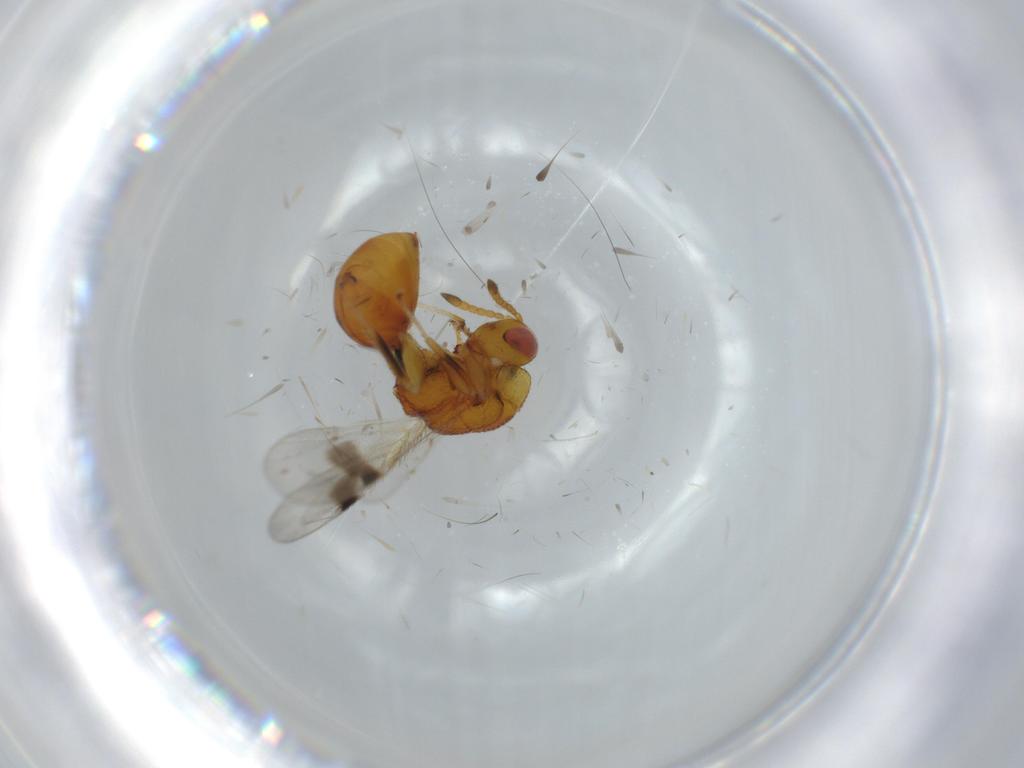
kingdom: Animalia
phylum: Arthropoda
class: Insecta
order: Hymenoptera
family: Eurytomidae
